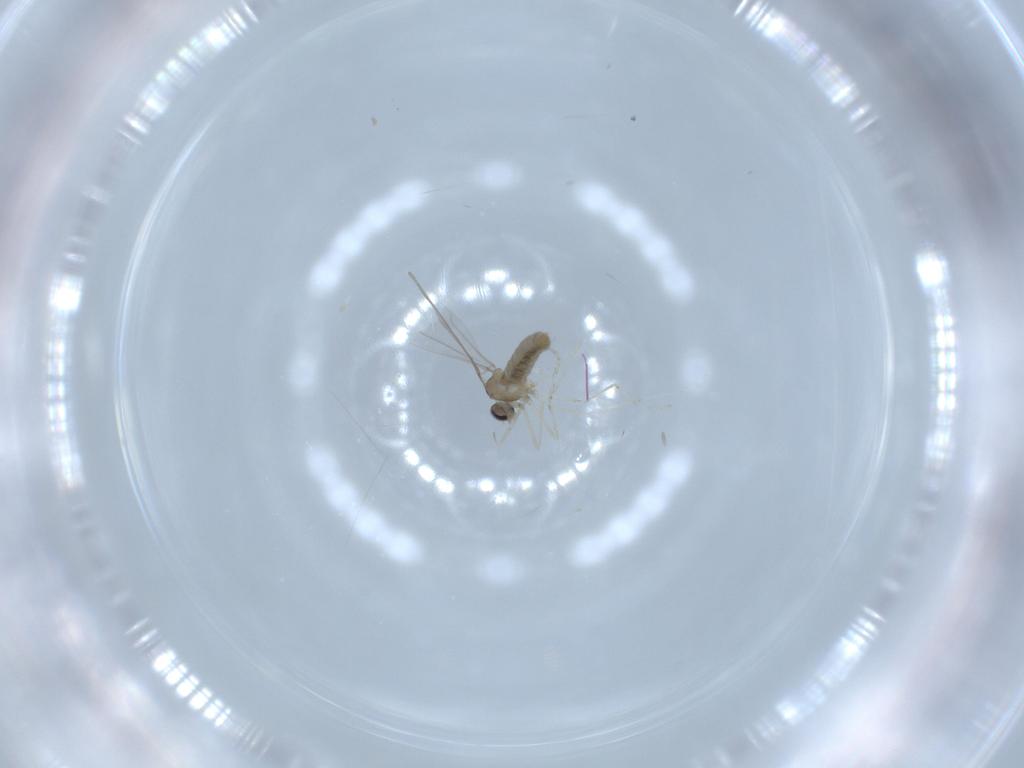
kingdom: Animalia
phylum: Arthropoda
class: Insecta
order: Diptera
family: Cecidomyiidae
